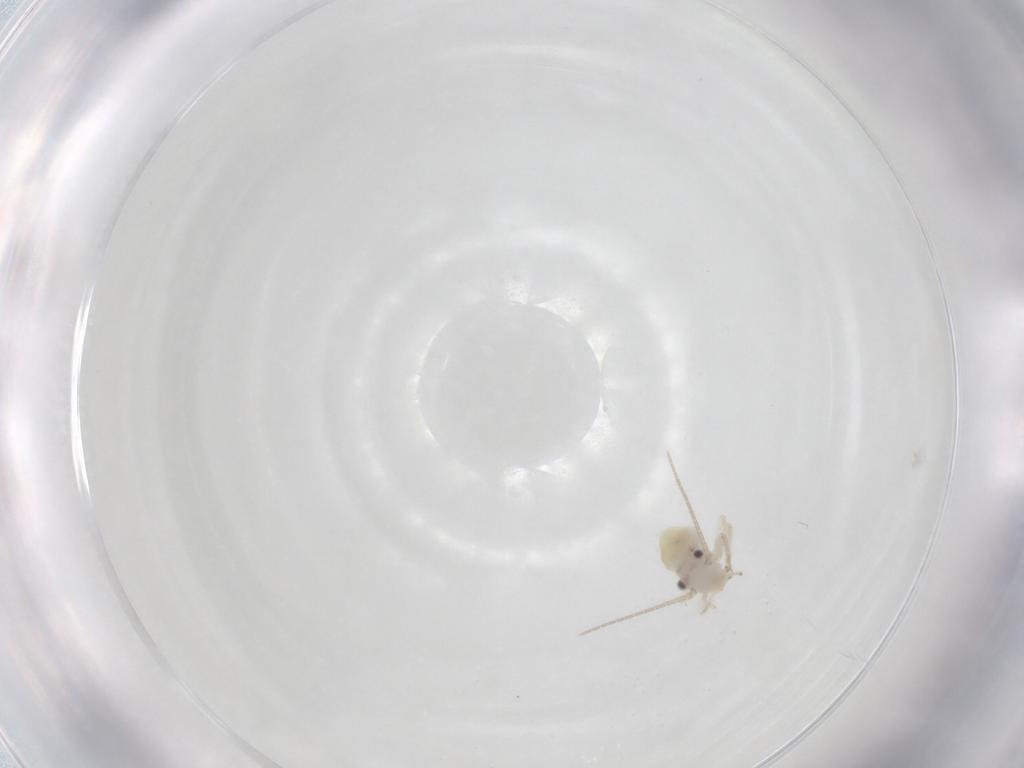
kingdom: Animalia
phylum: Arthropoda
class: Insecta
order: Psocodea
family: Caeciliusidae
